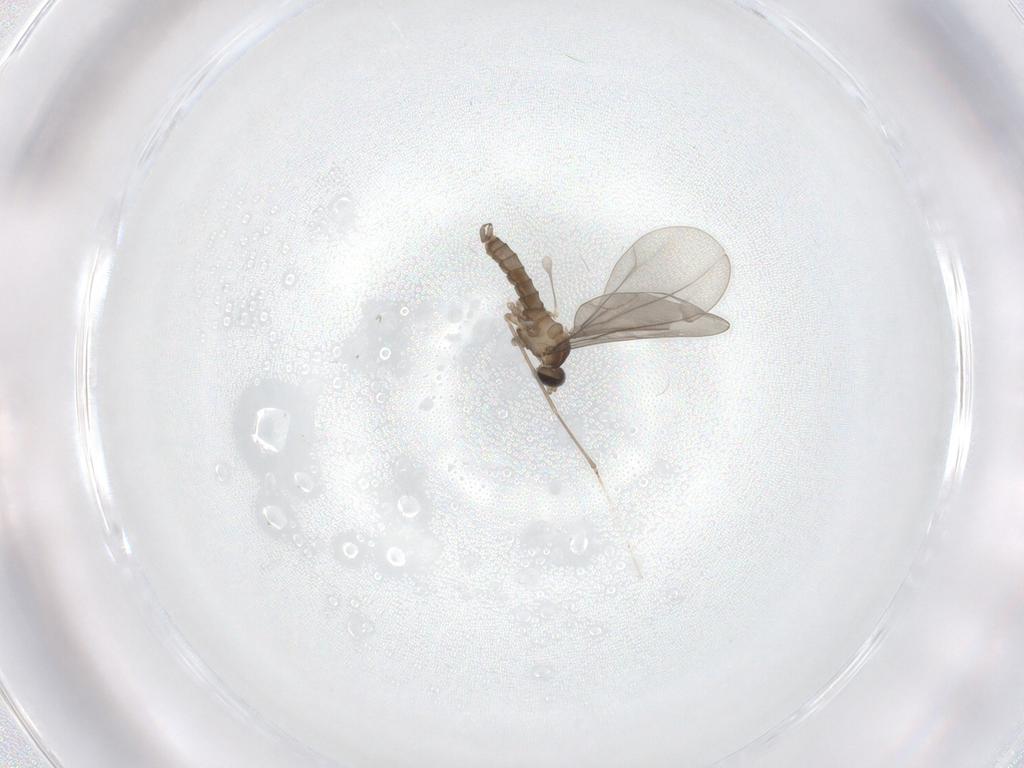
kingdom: Animalia
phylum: Arthropoda
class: Insecta
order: Diptera
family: Cecidomyiidae
